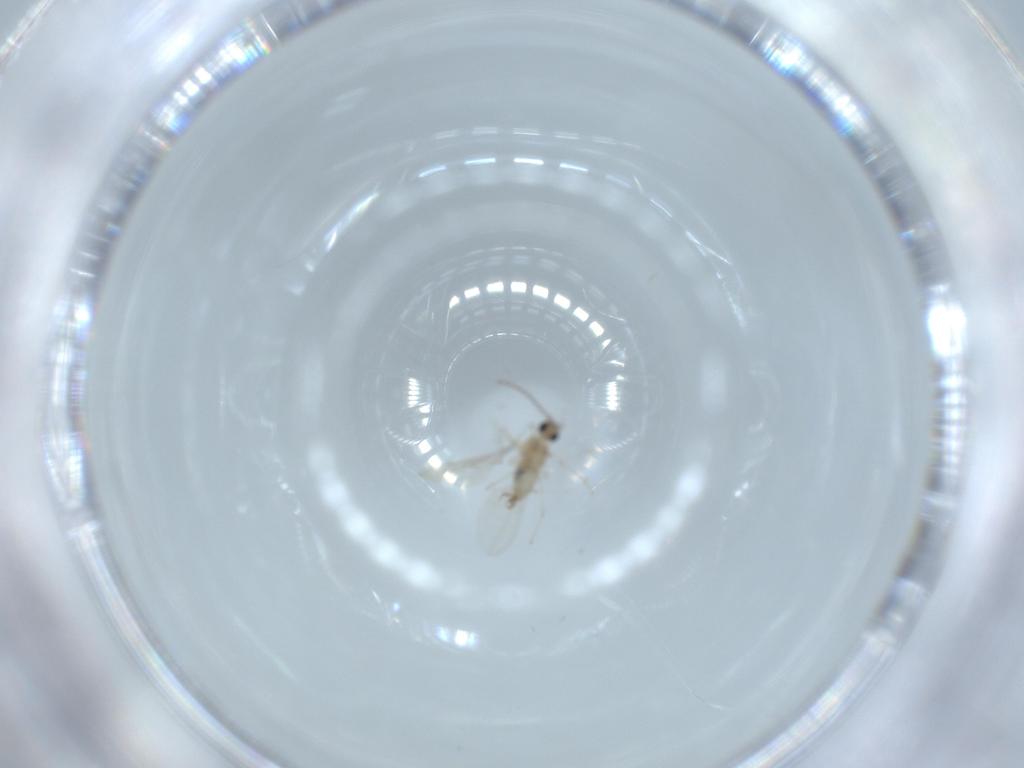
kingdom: Animalia
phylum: Arthropoda
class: Insecta
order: Diptera
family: Cecidomyiidae
